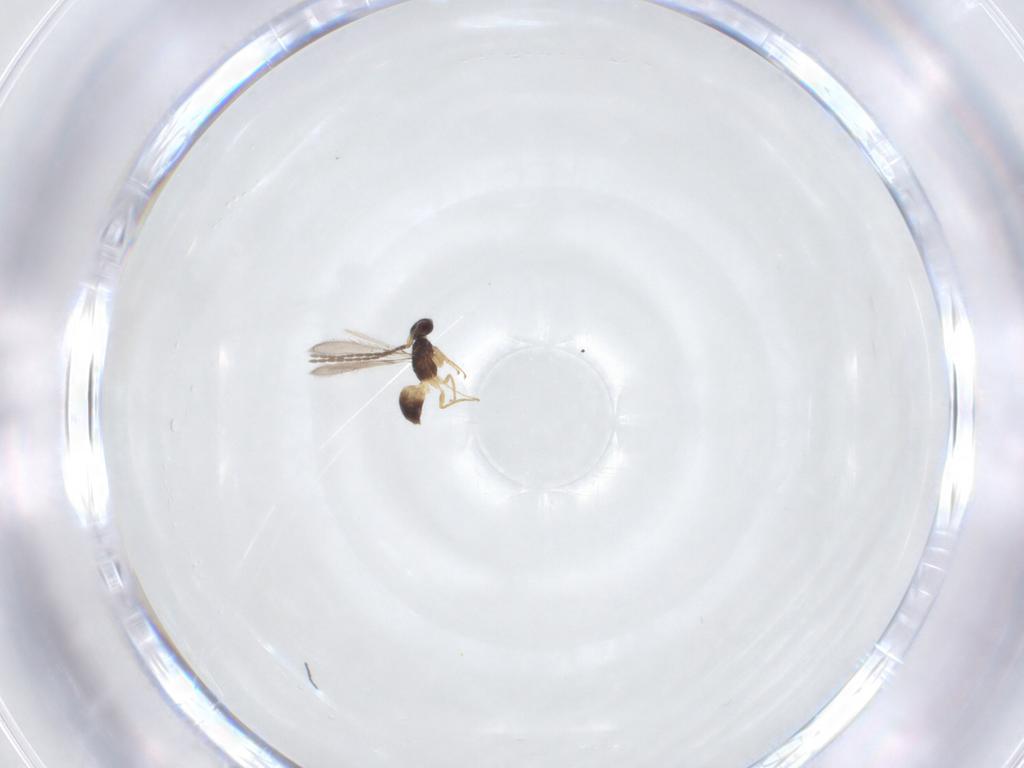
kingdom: Animalia
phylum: Arthropoda
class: Insecta
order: Hymenoptera
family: Mymaridae
